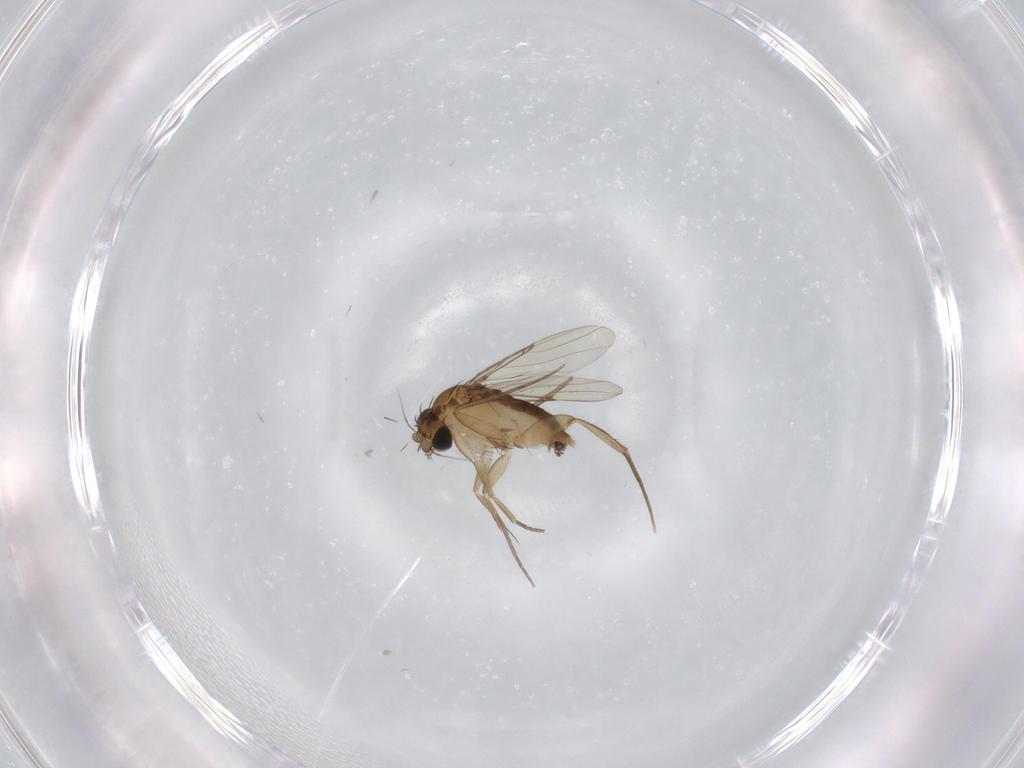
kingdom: Animalia
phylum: Arthropoda
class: Insecta
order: Diptera
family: Phoridae
